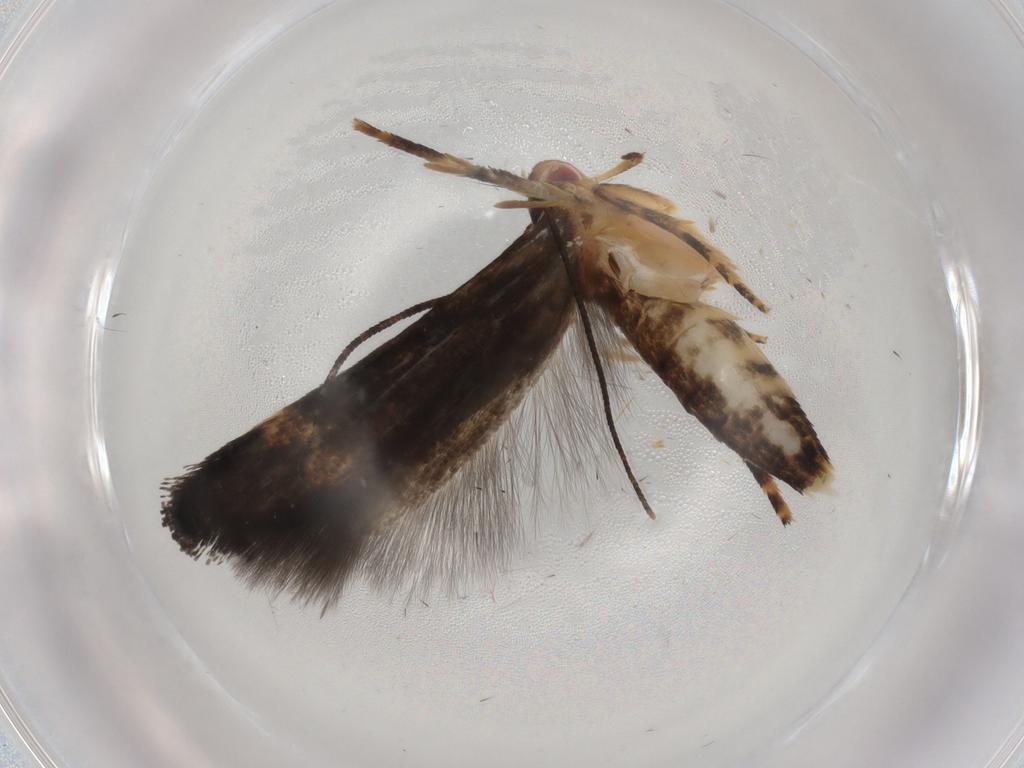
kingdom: Animalia
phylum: Arthropoda
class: Insecta
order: Lepidoptera
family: Momphidae
